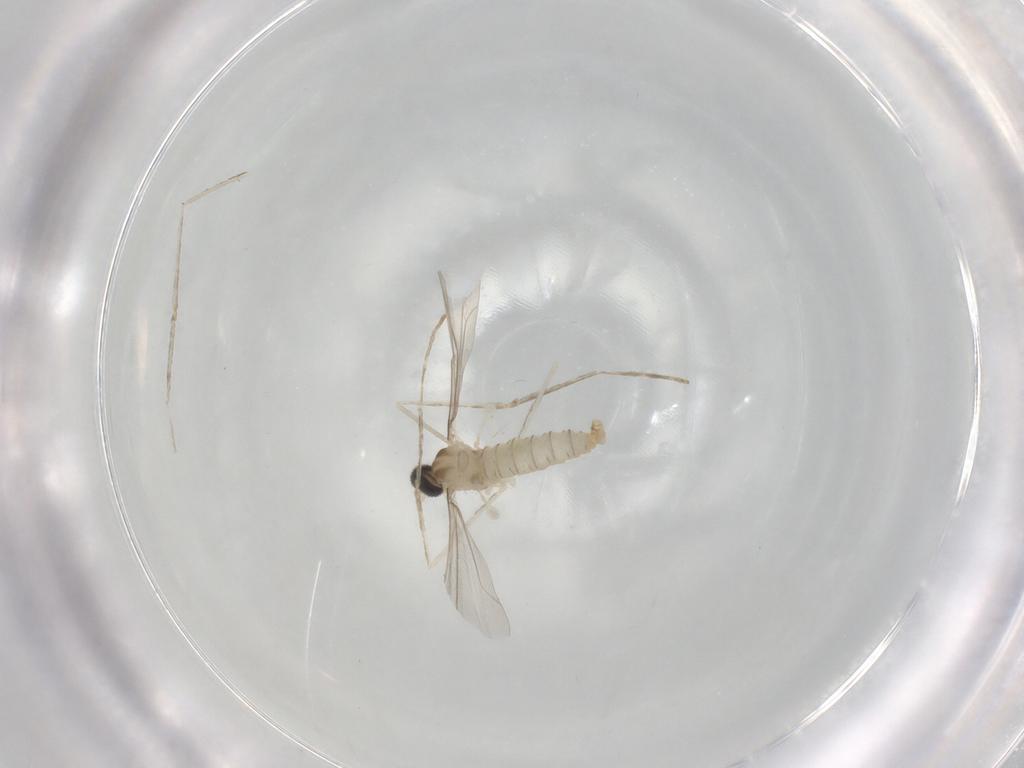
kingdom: Animalia
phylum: Arthropoda
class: Insecta
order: Diptera
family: Cecidomyiidae
